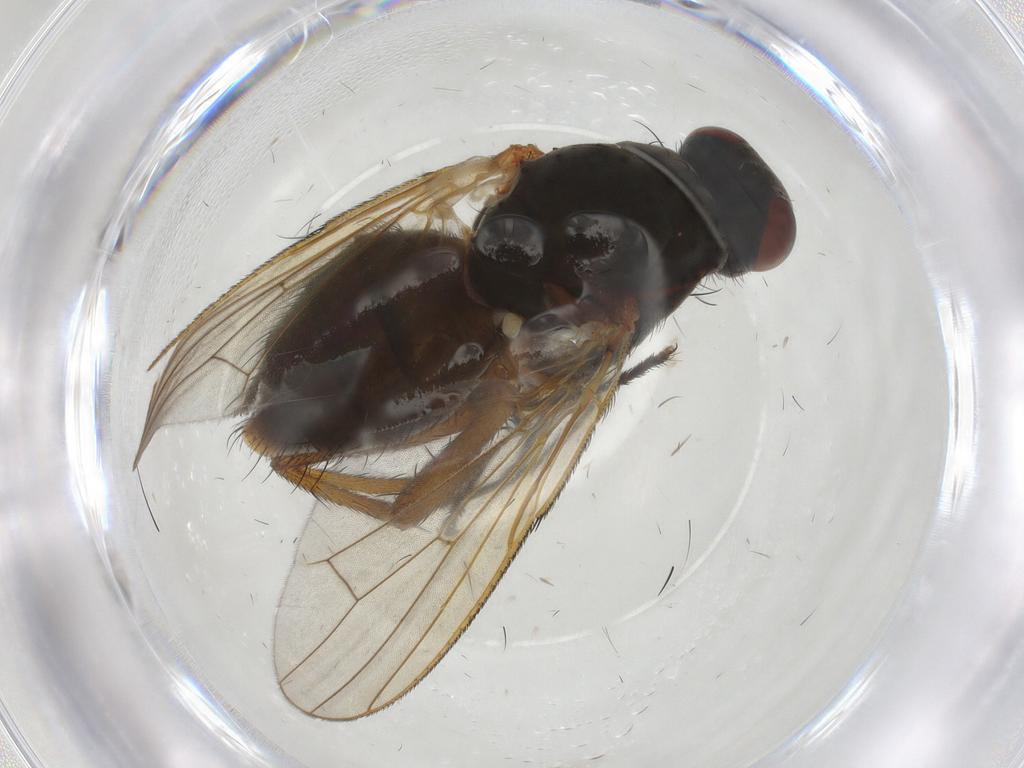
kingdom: Animalia
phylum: Arthropoda
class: Insecta
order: Diptera
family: Anthomyiidae
